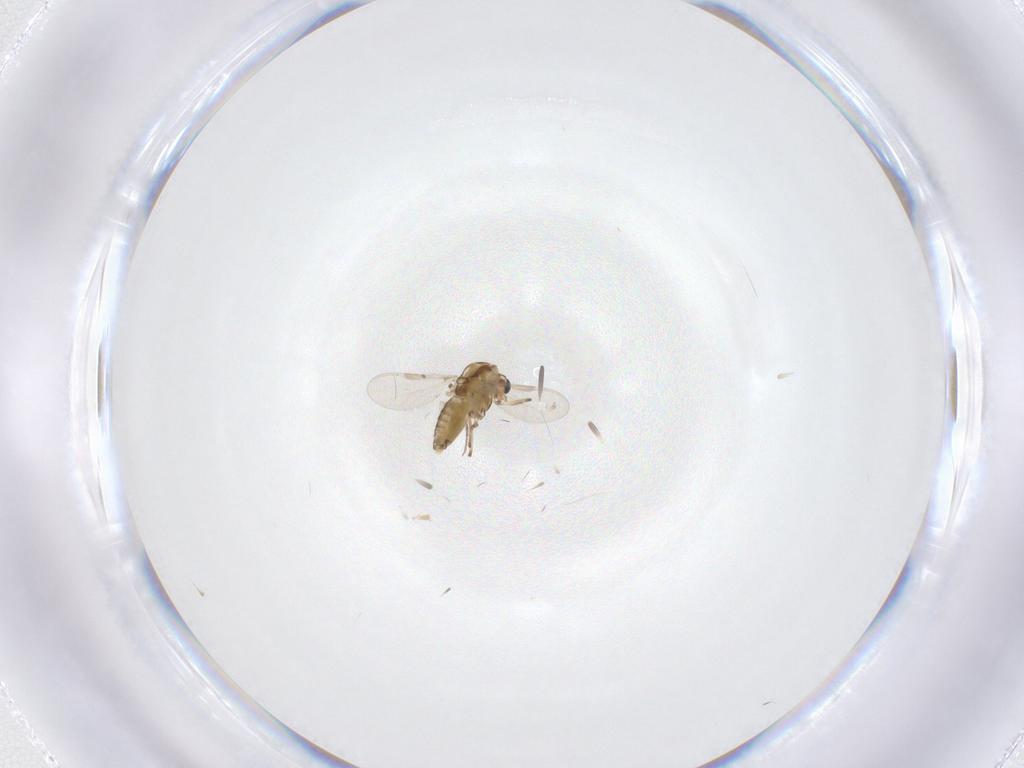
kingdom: Animalia
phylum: Arthropoda
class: Insecta
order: Diptera
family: Chironomidae
